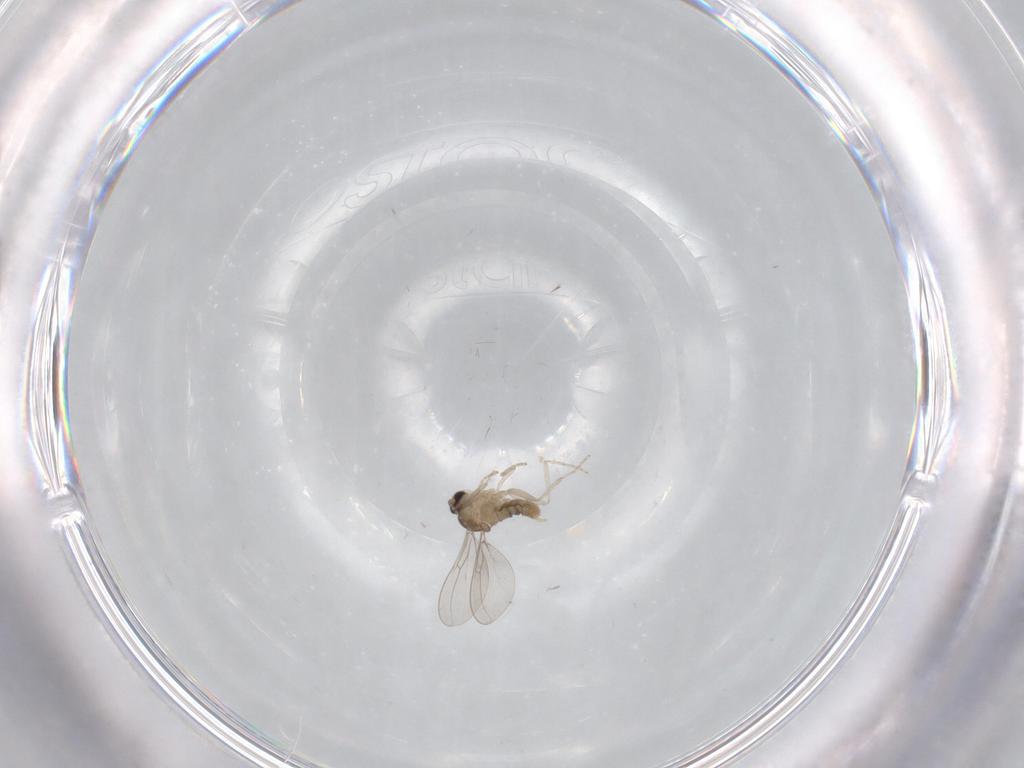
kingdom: Animalia
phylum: Arthropoda
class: Insecta
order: Diptera
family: Cecidomyiidae
